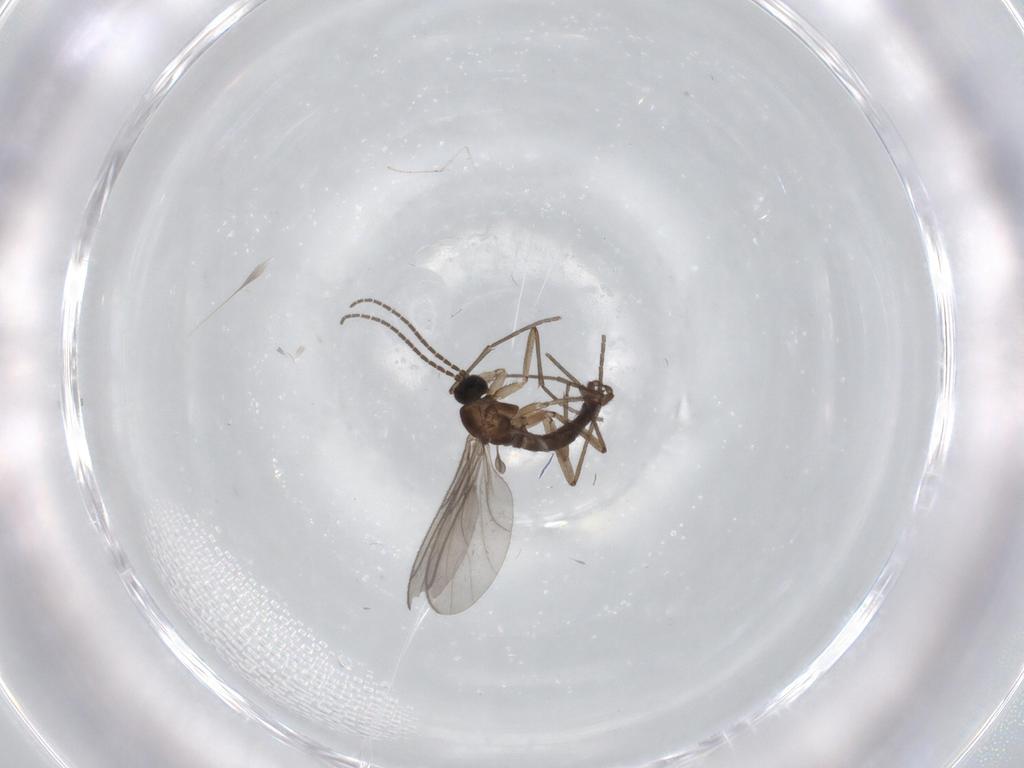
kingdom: Animalia
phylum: Arthropoda
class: Insecta
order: Diptera
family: Sciaridae
